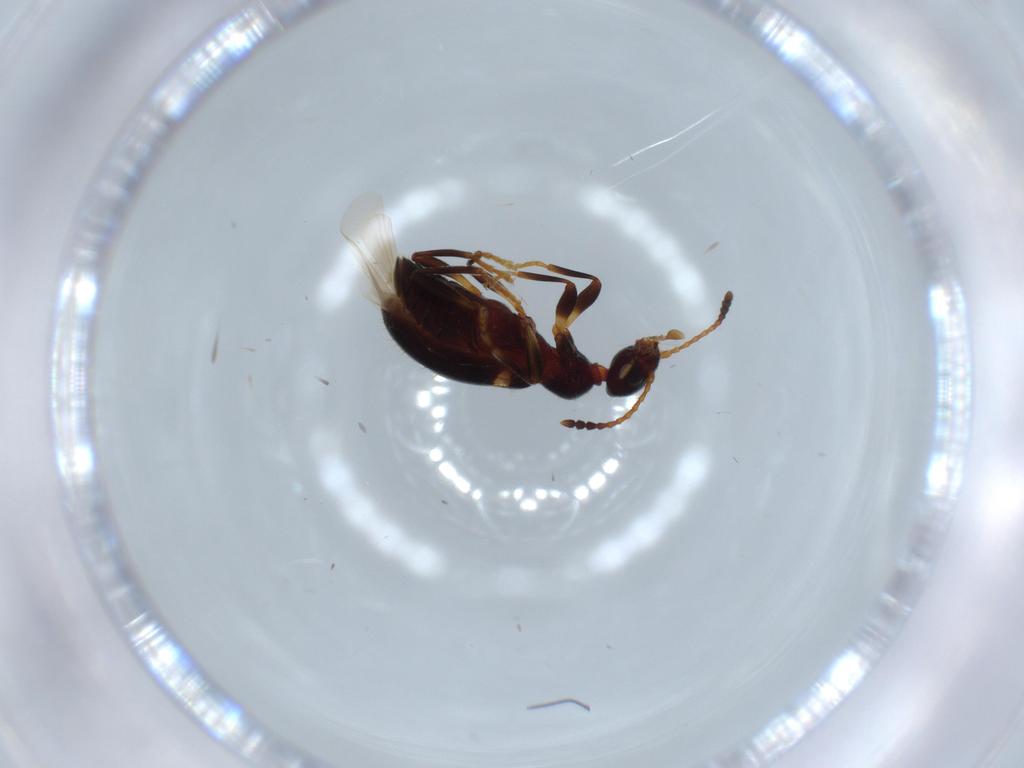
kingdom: Animalia
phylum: Arthropoda
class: Insecta
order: Coleoptera
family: Anthicidae
